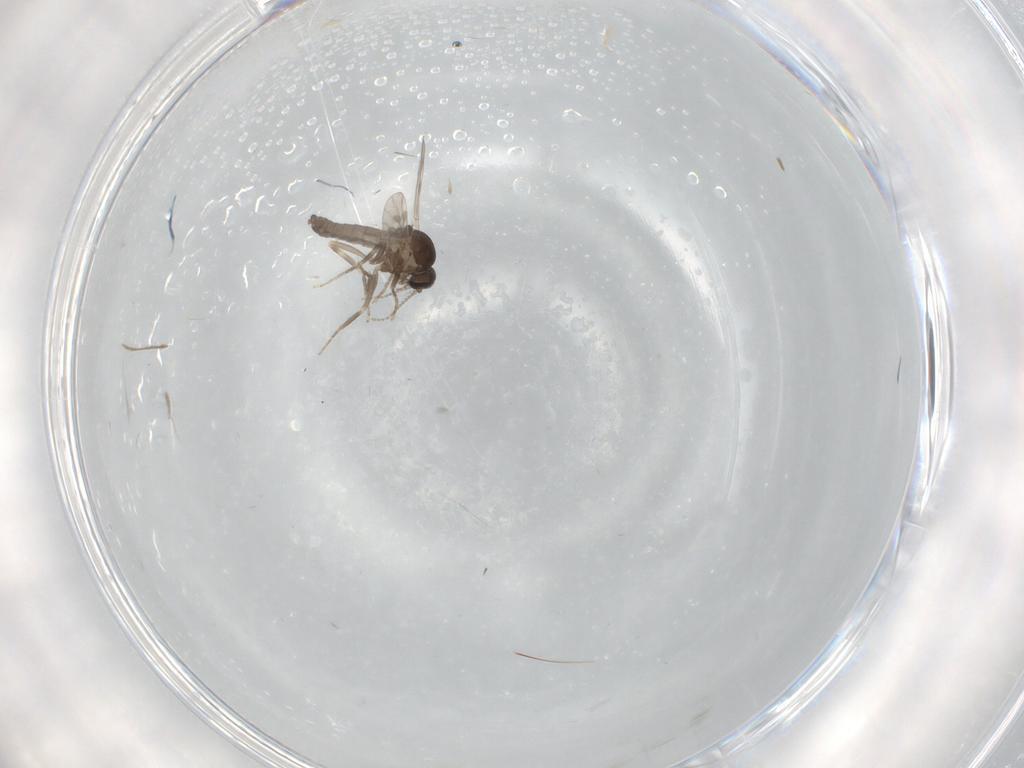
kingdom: Animalia
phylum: Arthropoda
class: Insecta
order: Diptera
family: Ceratopogonidae
